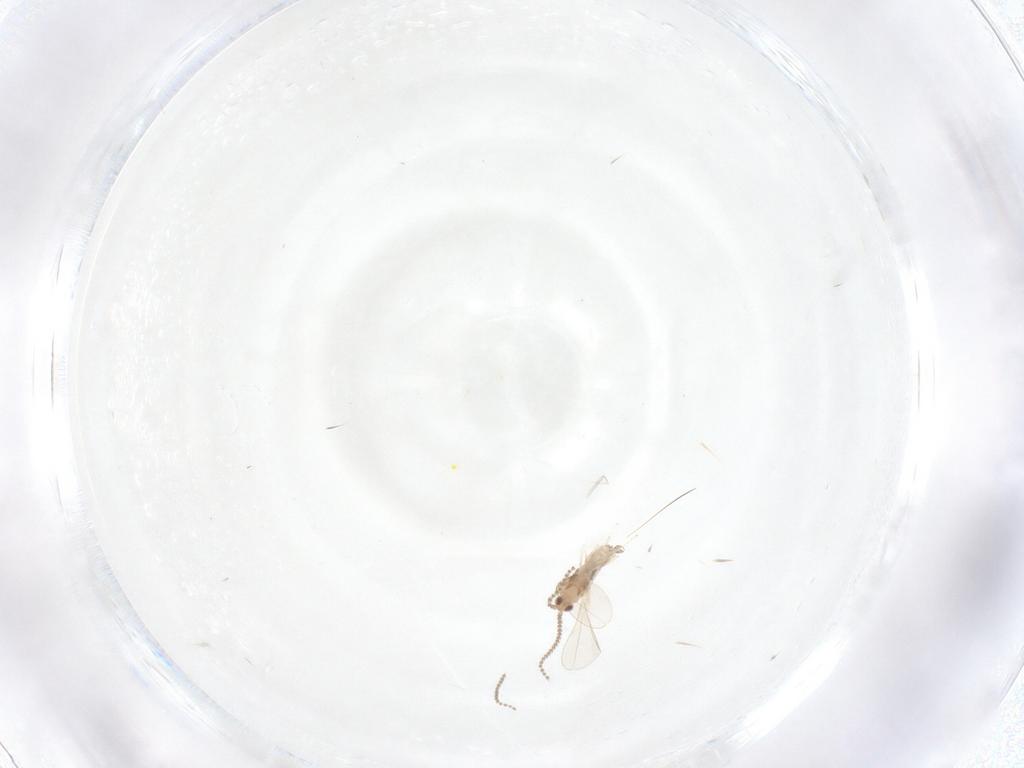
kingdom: Animalia
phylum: Arthropoda
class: Insecta
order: Diptera
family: Cecidomyiidae
